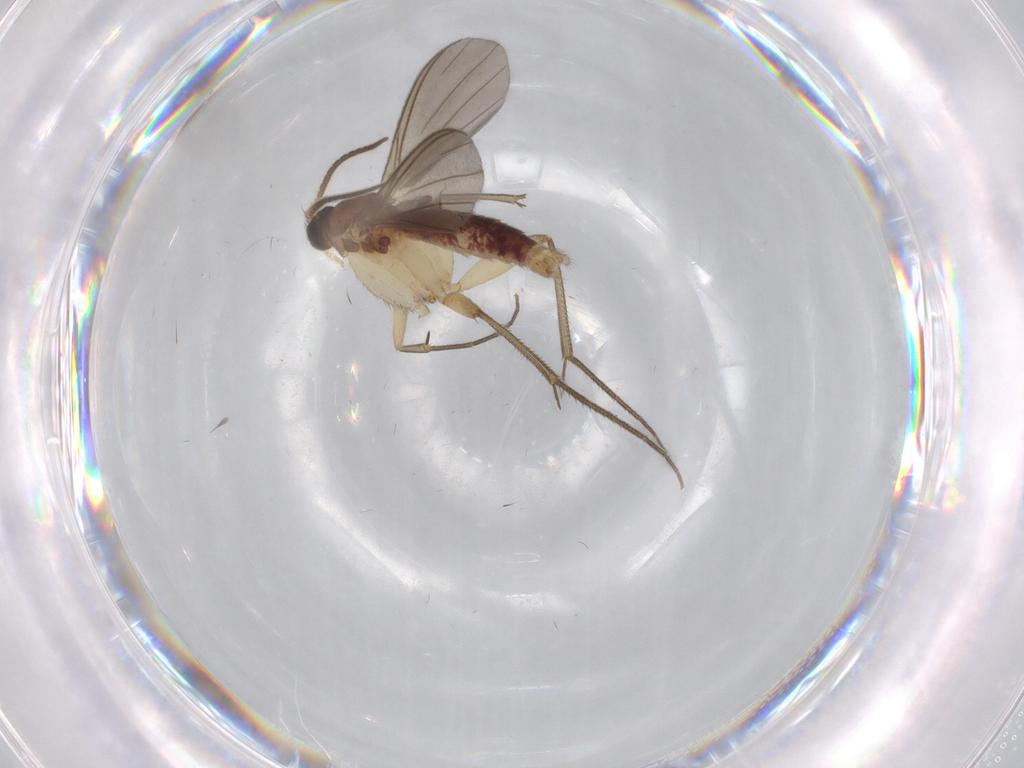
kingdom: Animalia
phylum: Arthropoda
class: Insecta
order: Diptera
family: Mycetophilidae
